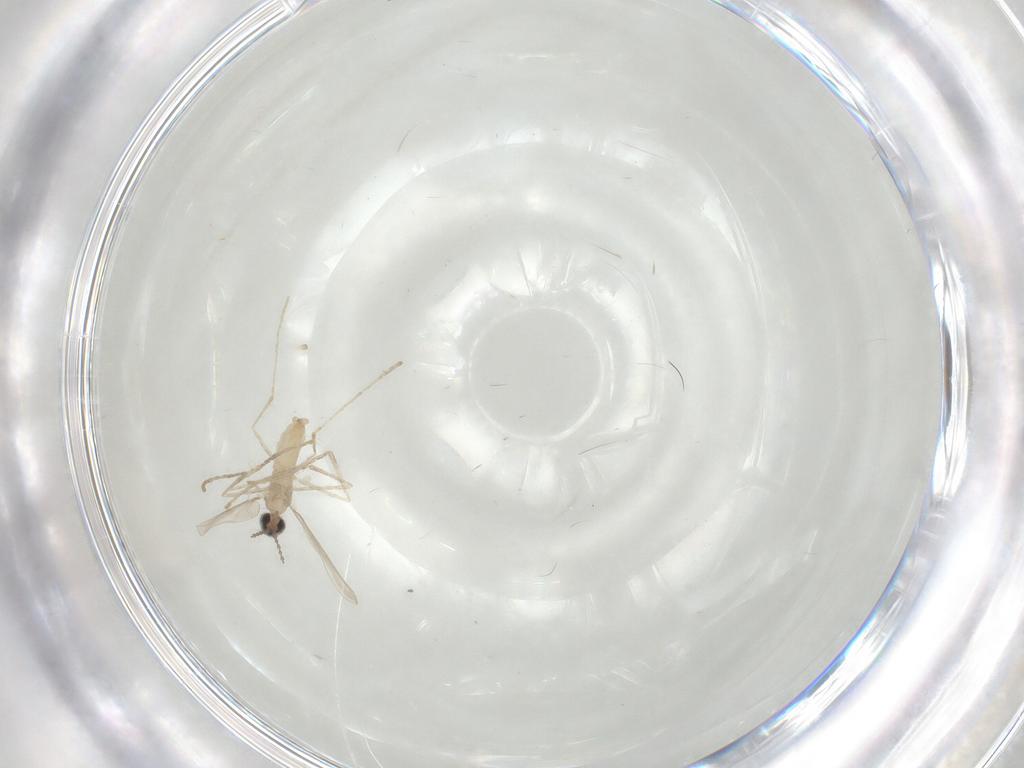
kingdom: Animalia
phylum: Arthropoda
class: Insecta
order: Diptera
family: Cecidomyiidae
